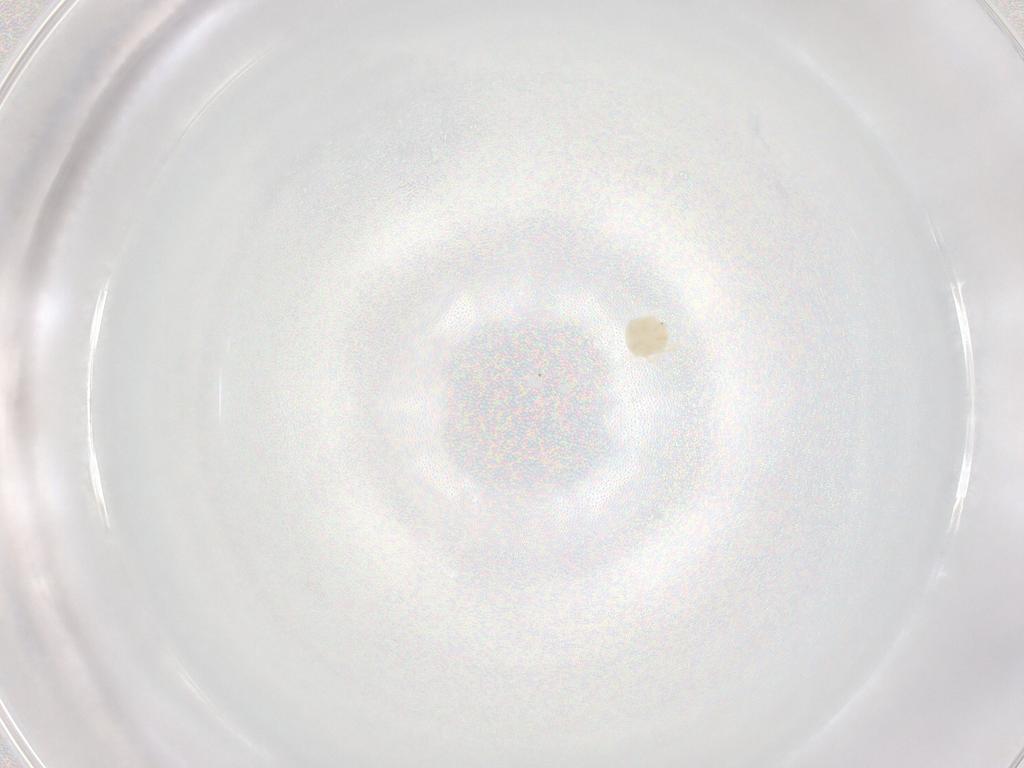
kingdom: Animalia
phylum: Arthropoda
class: Arachnida
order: Trombidiformes
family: Sperchontidae
